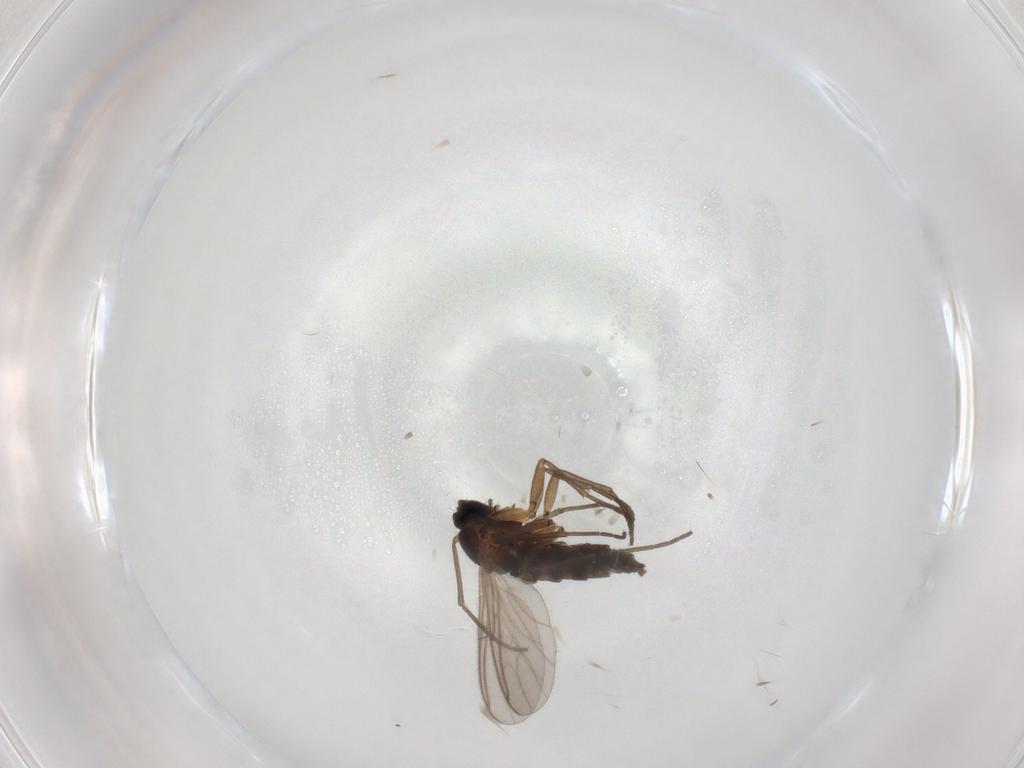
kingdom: Animalia
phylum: Arthropoda
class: Insecta
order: Diptera
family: Sciaridae
